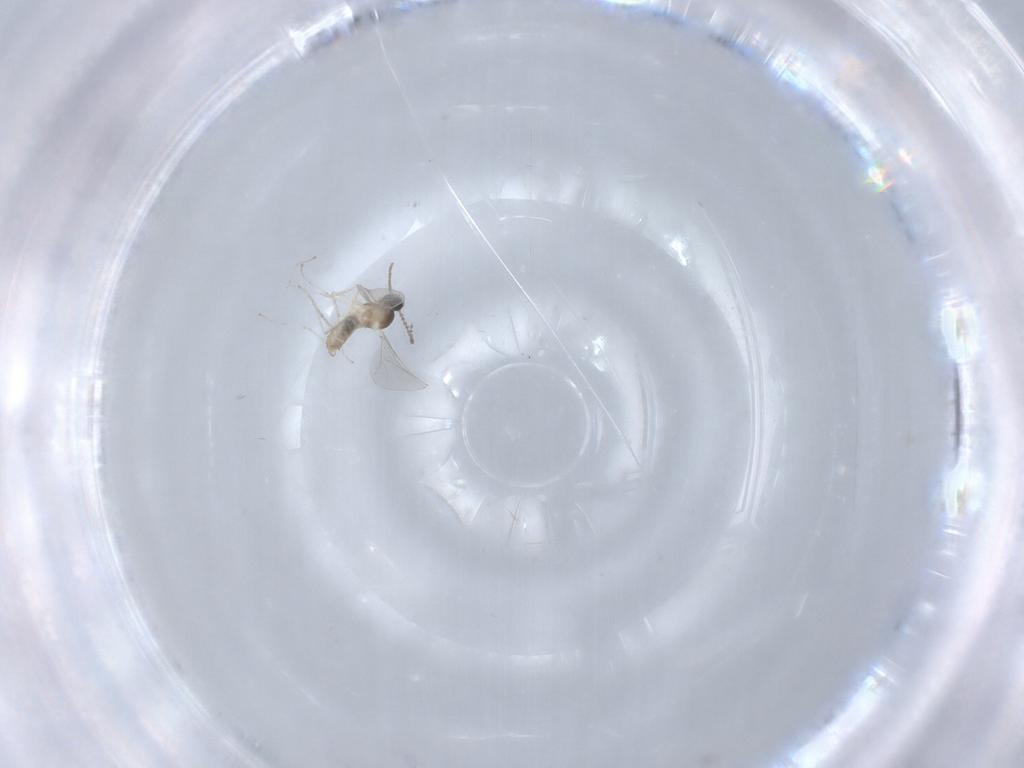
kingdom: Animalia
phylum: Arthropoda
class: Insecta
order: Diptera
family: Cecidomyiidae
